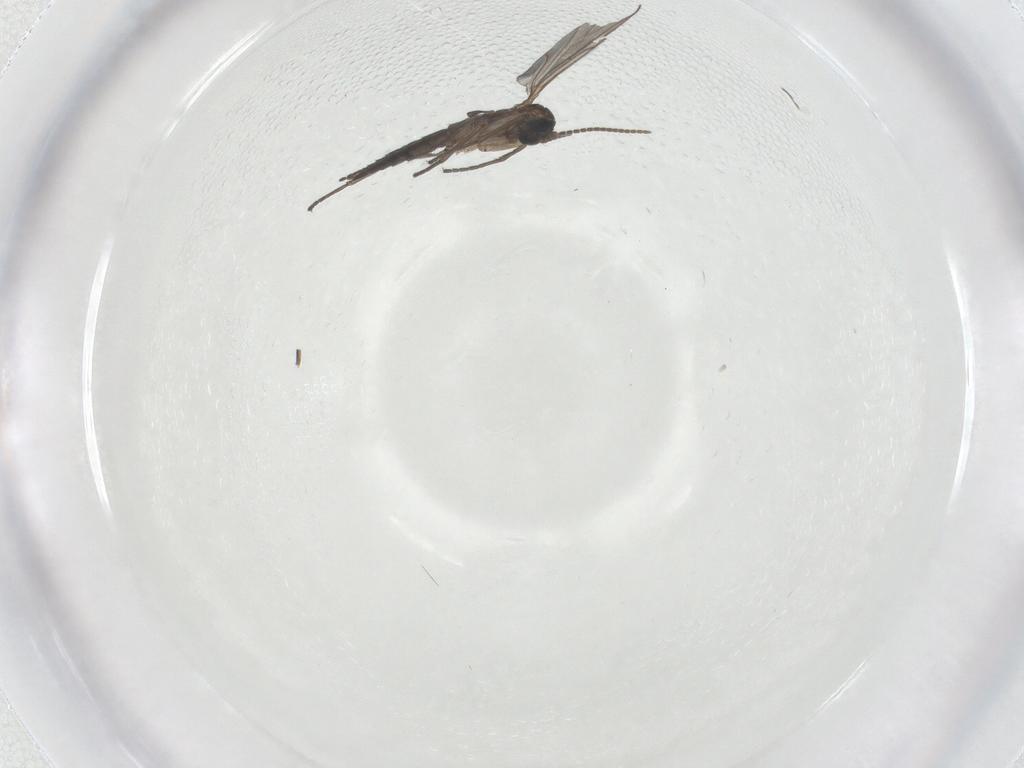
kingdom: Animalia
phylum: Arthropoda
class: Insecta
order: Diptera
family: Sciaridae
